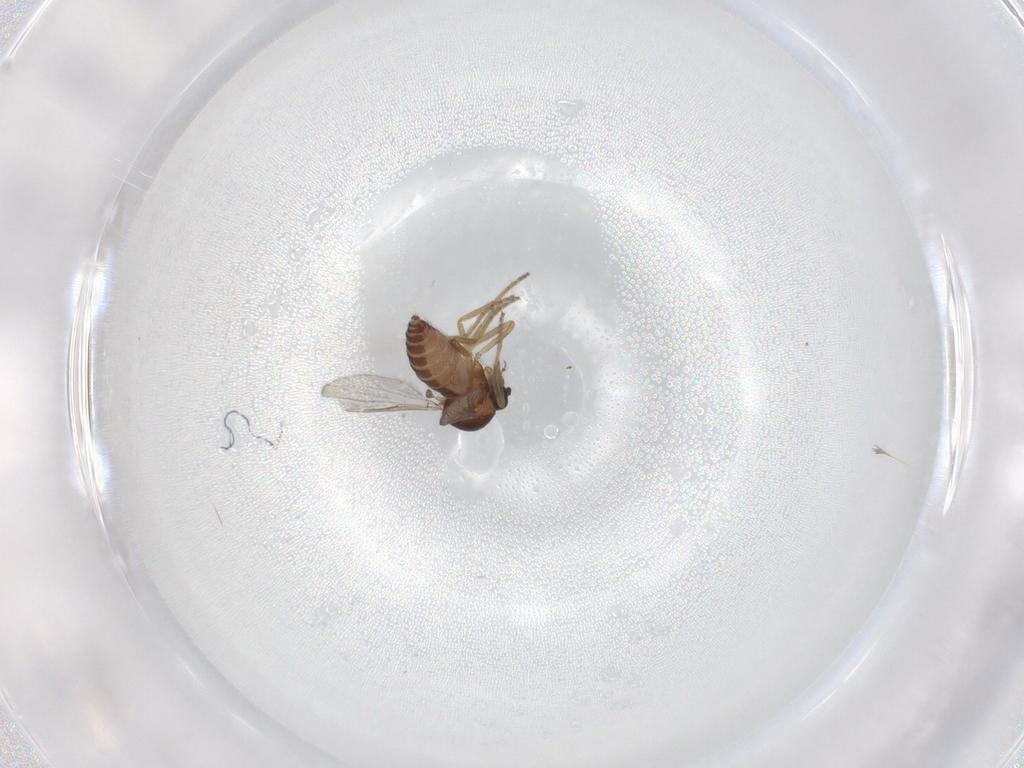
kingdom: Animalia
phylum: Arthropoda
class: Insecta
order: Diptera
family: Ceratopogonidae
